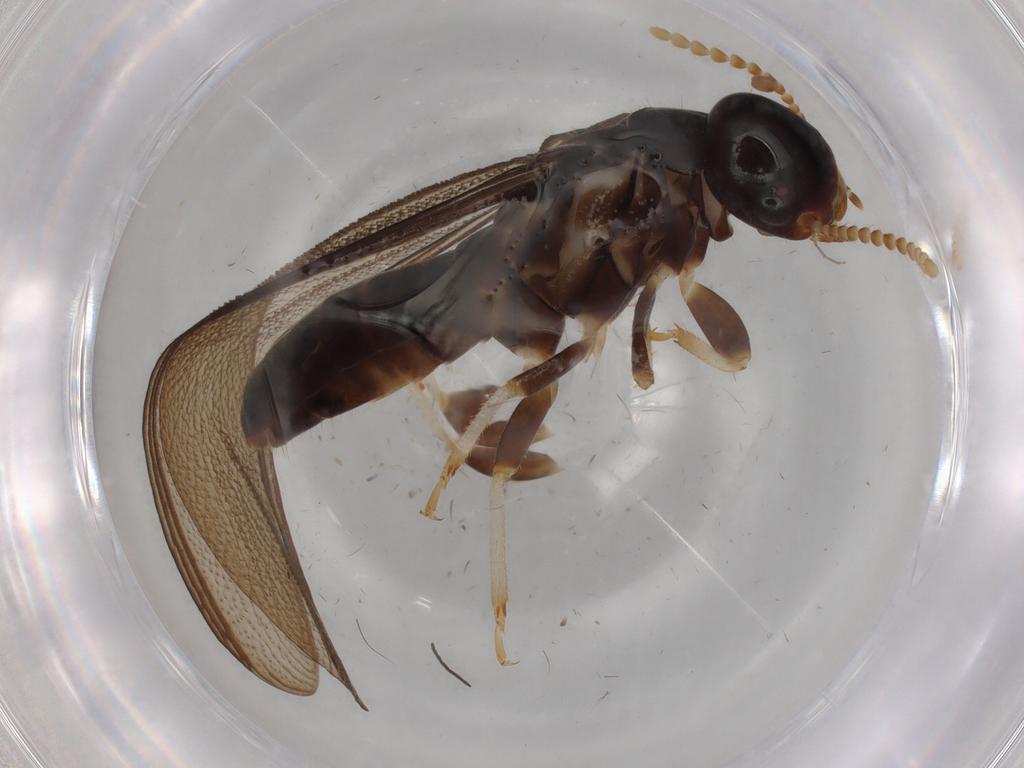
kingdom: Animalia
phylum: Arthropoda
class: Insecta
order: Blattodea
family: Kalotermitidae
